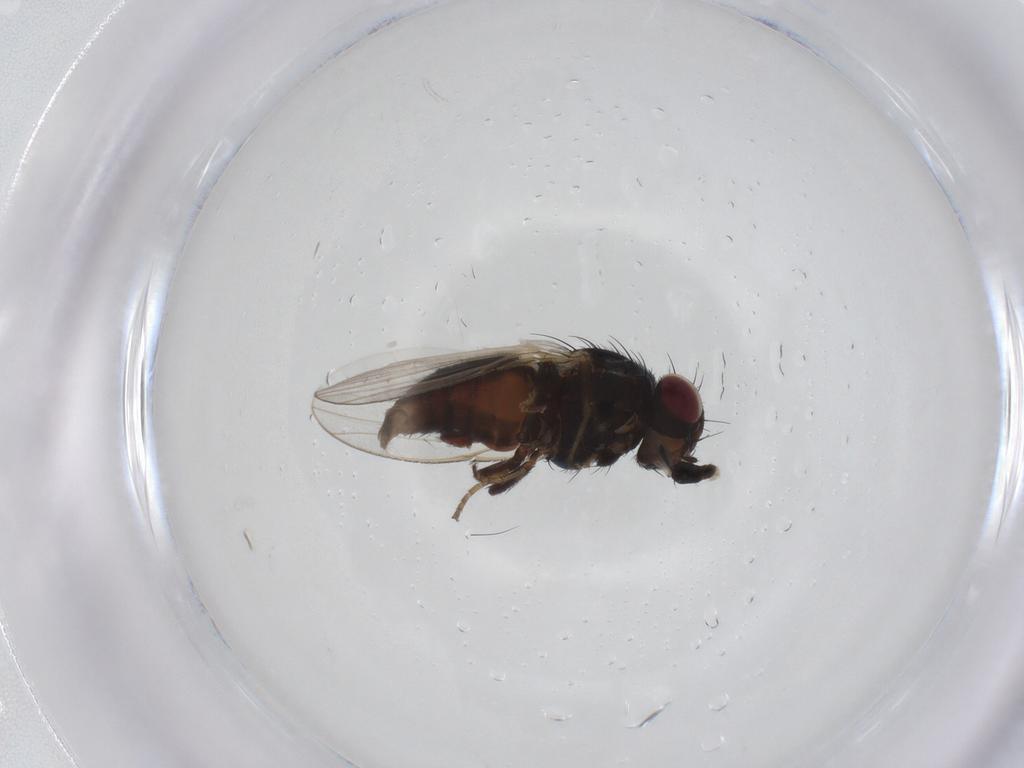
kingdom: Animalia
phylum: Arthropoda
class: Insecta
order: Diptera
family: Carnidae
